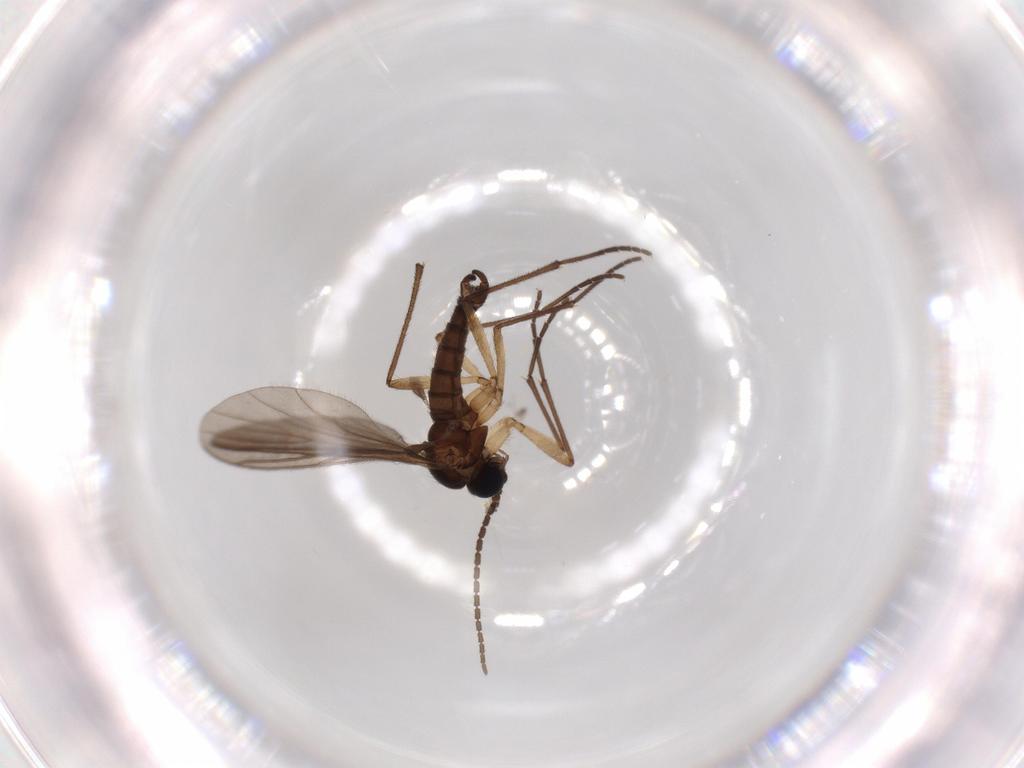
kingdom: Animalia
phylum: Arthropoda
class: Insecta
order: Diptera
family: Sciaridae
